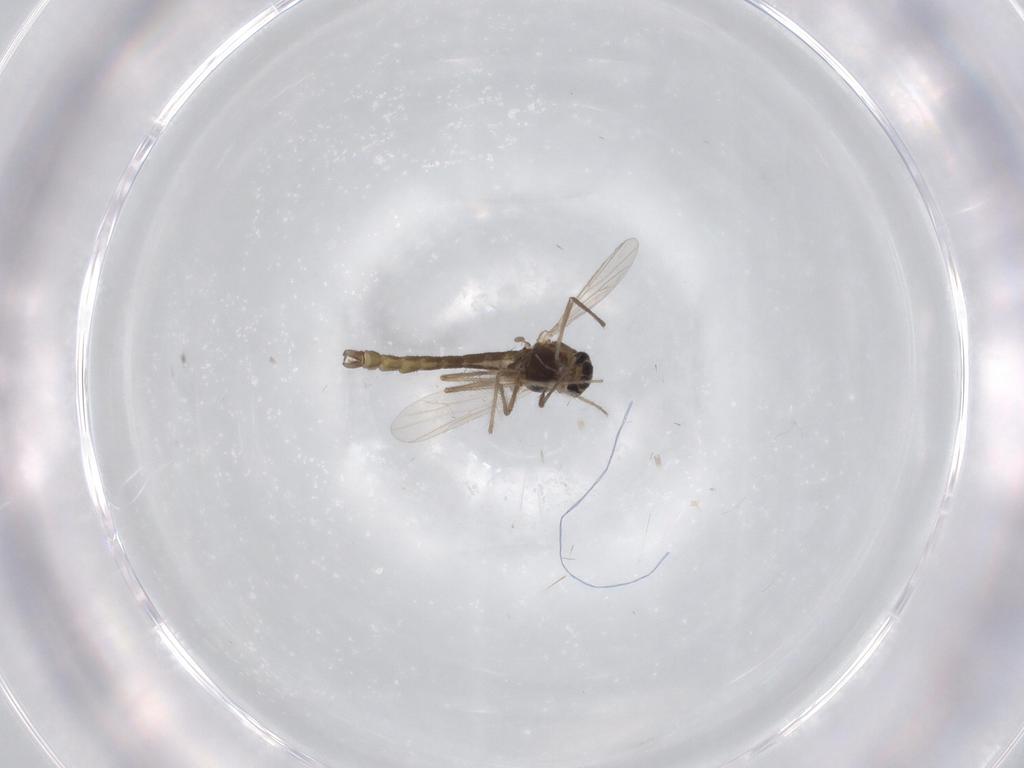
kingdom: Animalia
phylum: Arthropoda
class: Insecta
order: Diptera
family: Chironomidae
